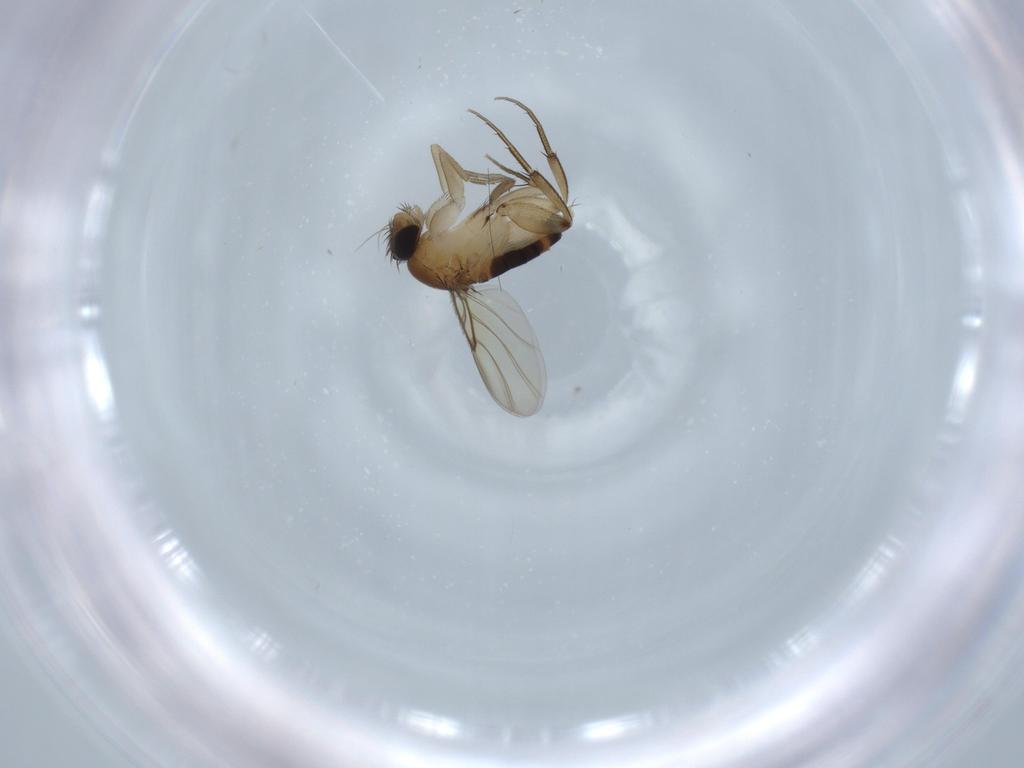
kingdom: Animalia
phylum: Arthropoda
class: Insecta
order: Diptera
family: Phoridae
